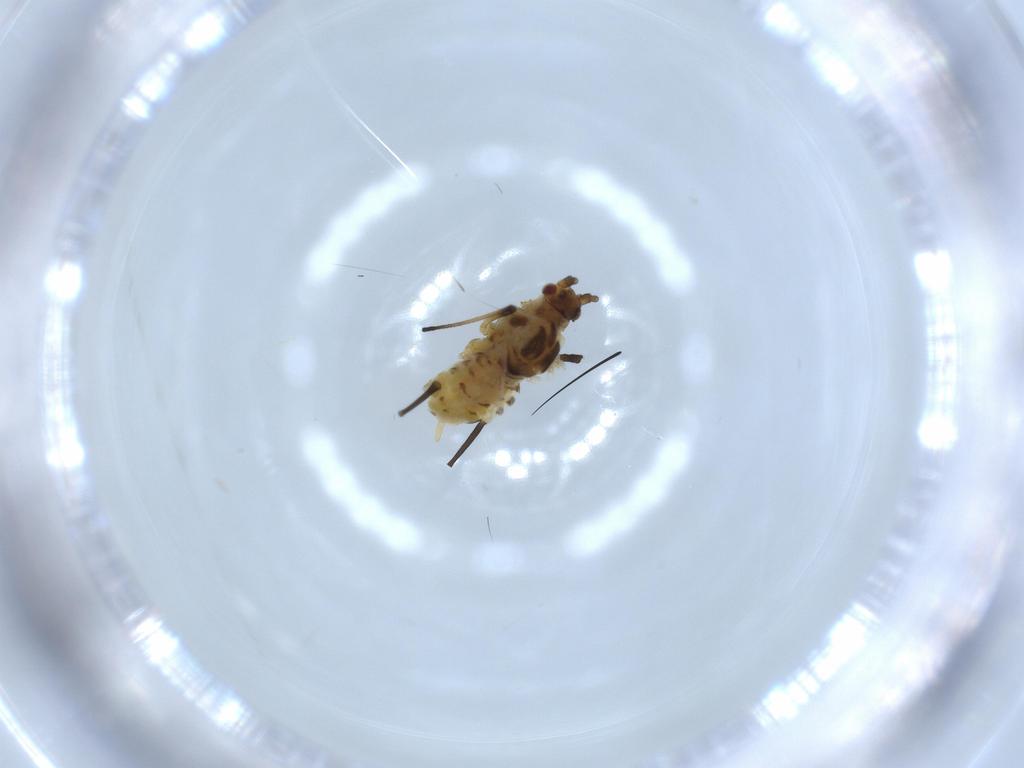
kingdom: Animalia
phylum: Arthropoda
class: Insecta
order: Hemiptera
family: Aphididae
